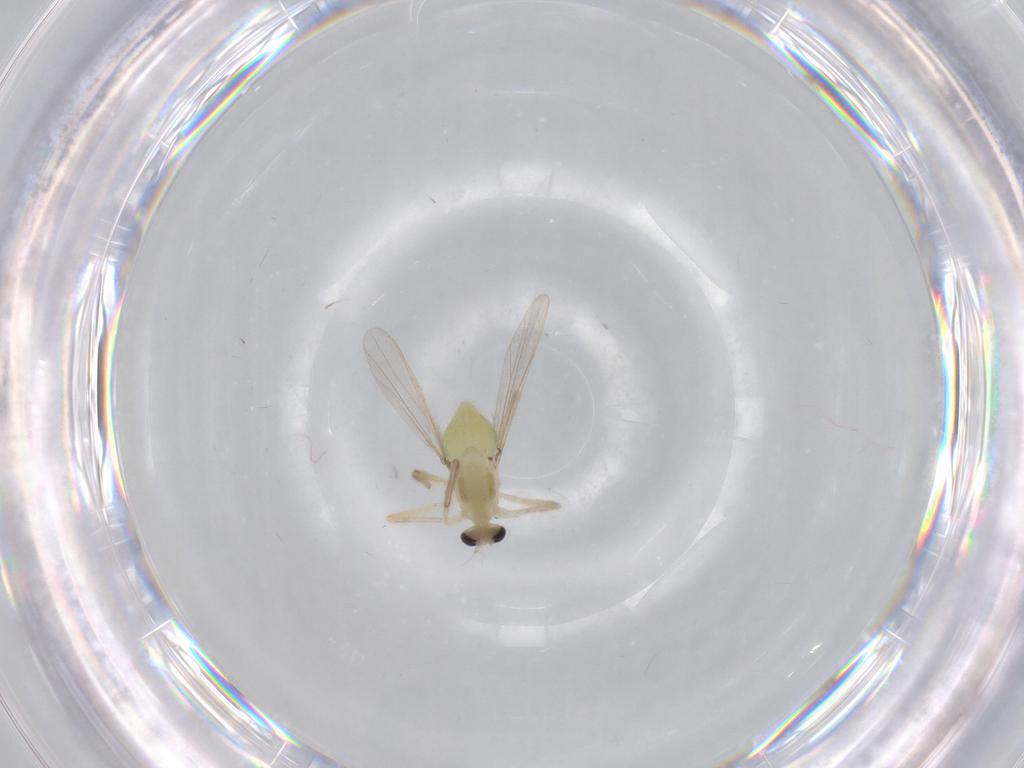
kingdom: Animalia
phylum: Arthropoda
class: Insecta
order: Diptera
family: Chironomidae
